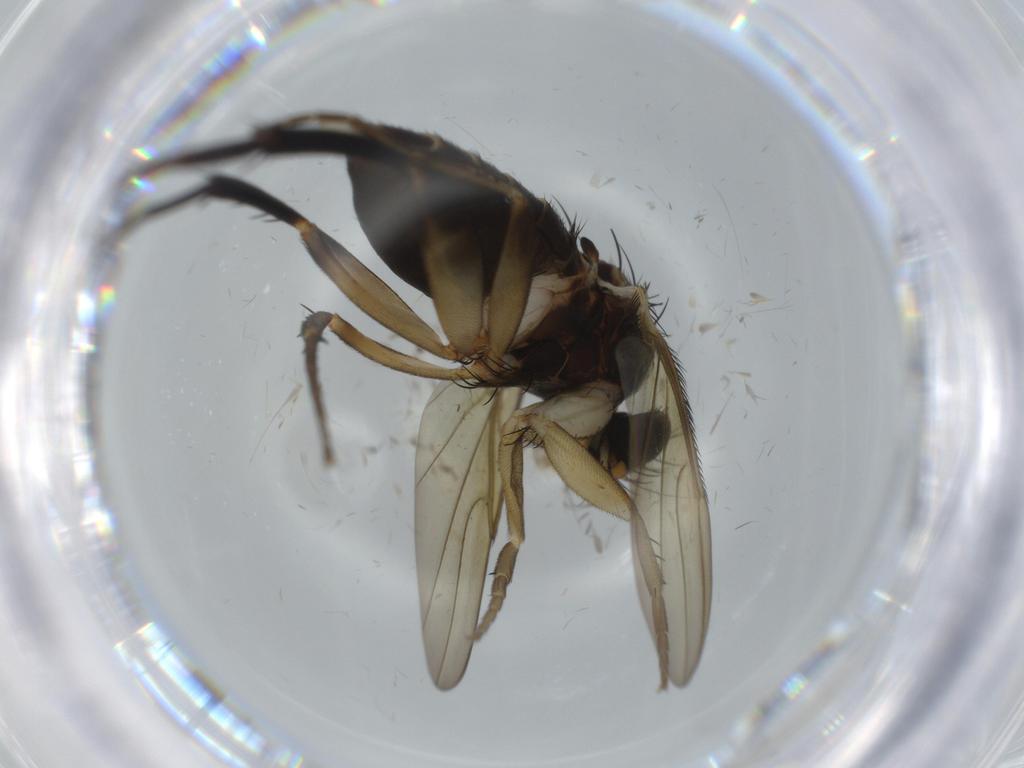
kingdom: Animalia
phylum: Arthropoda
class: Insecta
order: Diptera
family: Phoridae
